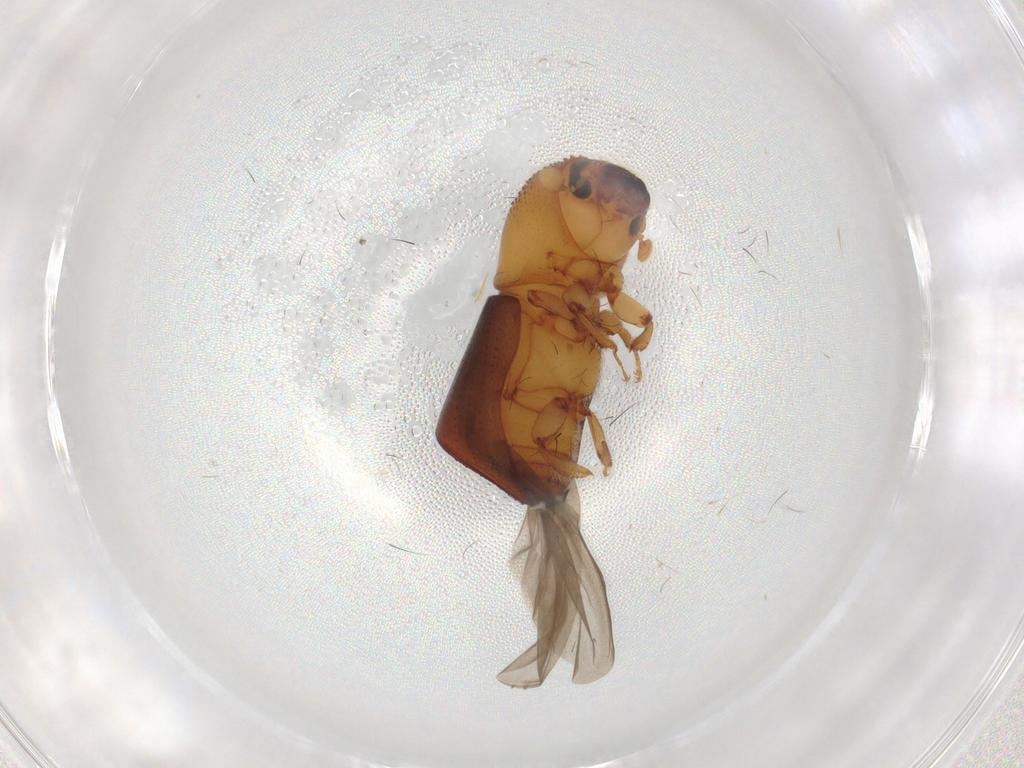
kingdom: Animalia
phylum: Arthropoda
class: Insecta
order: Coleoptera
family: Curculionidae
